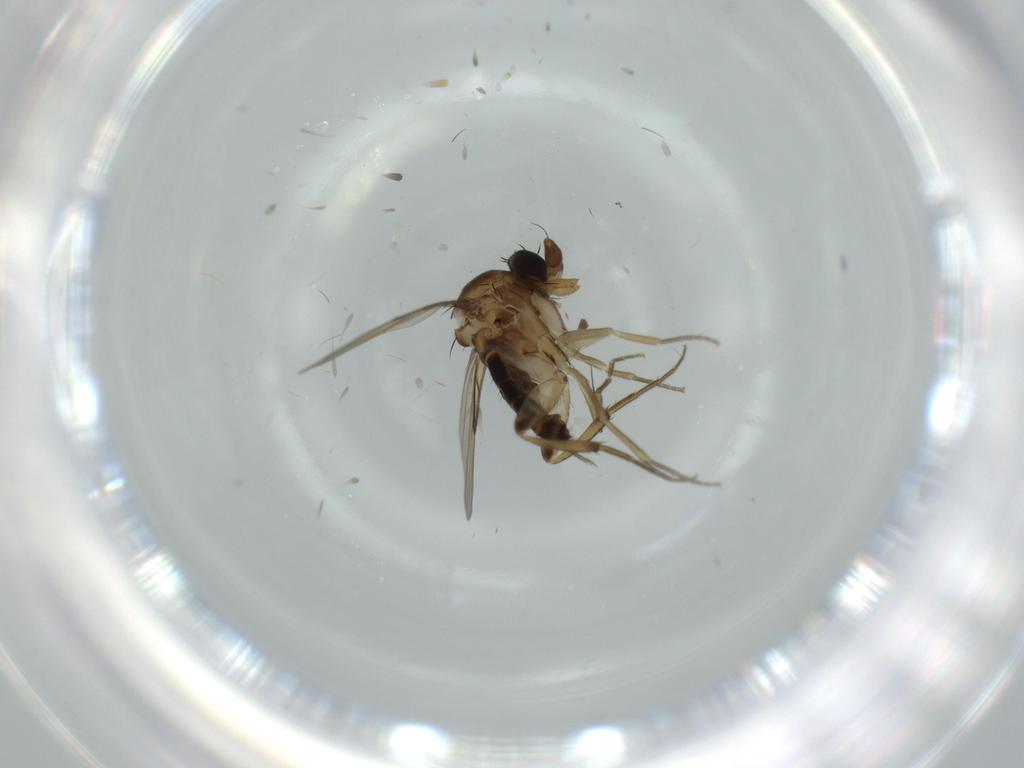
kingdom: Animalia
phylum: Arthropoda
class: Insecta
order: Diptera
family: Phoridae
